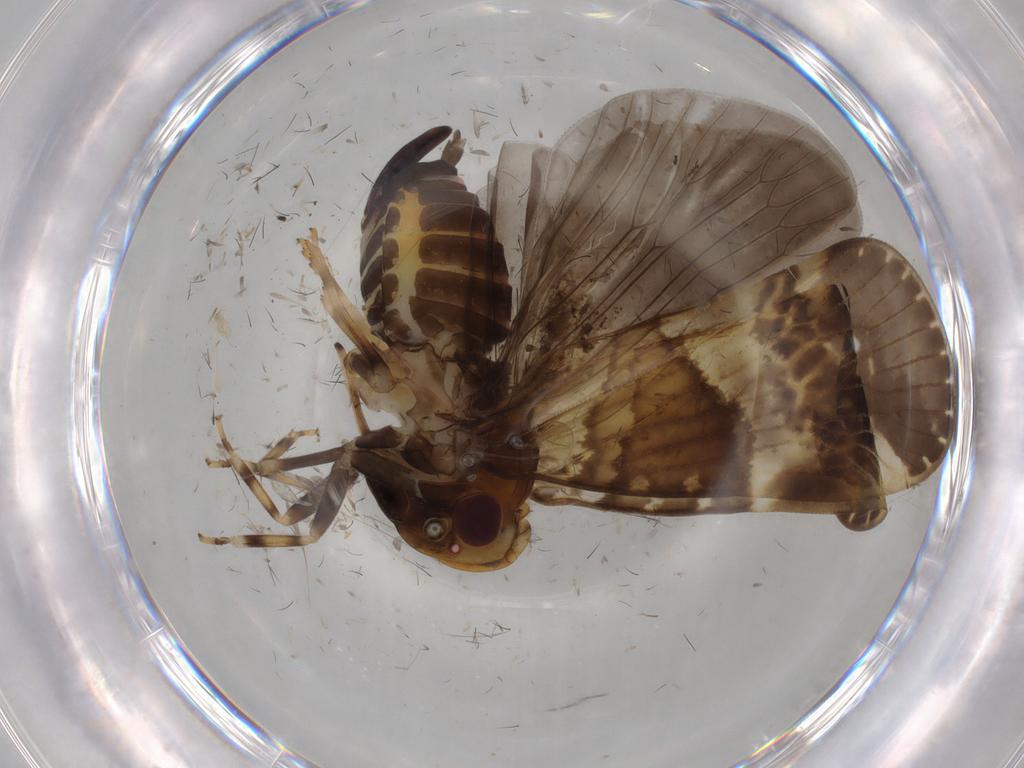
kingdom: Animalia
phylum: Arthropoda
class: Insecta
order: Hemiptera
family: Cixiidae
